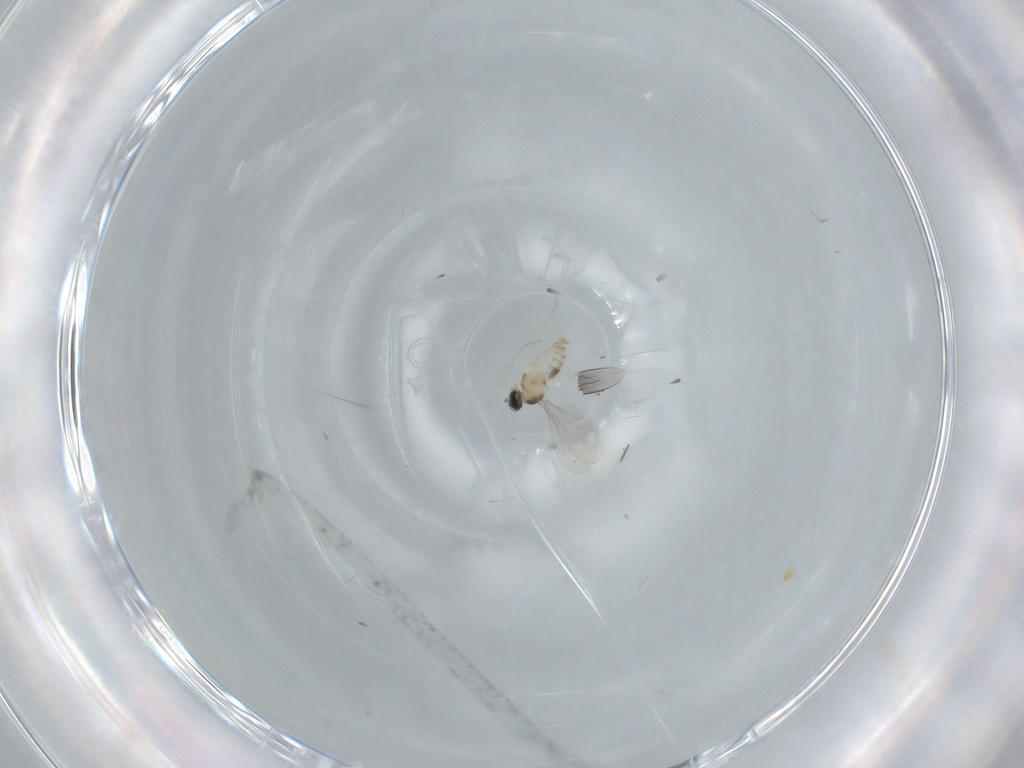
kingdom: Animalia
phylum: Arthropoda
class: Insecta
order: Diptera
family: Cecidomyiidae
